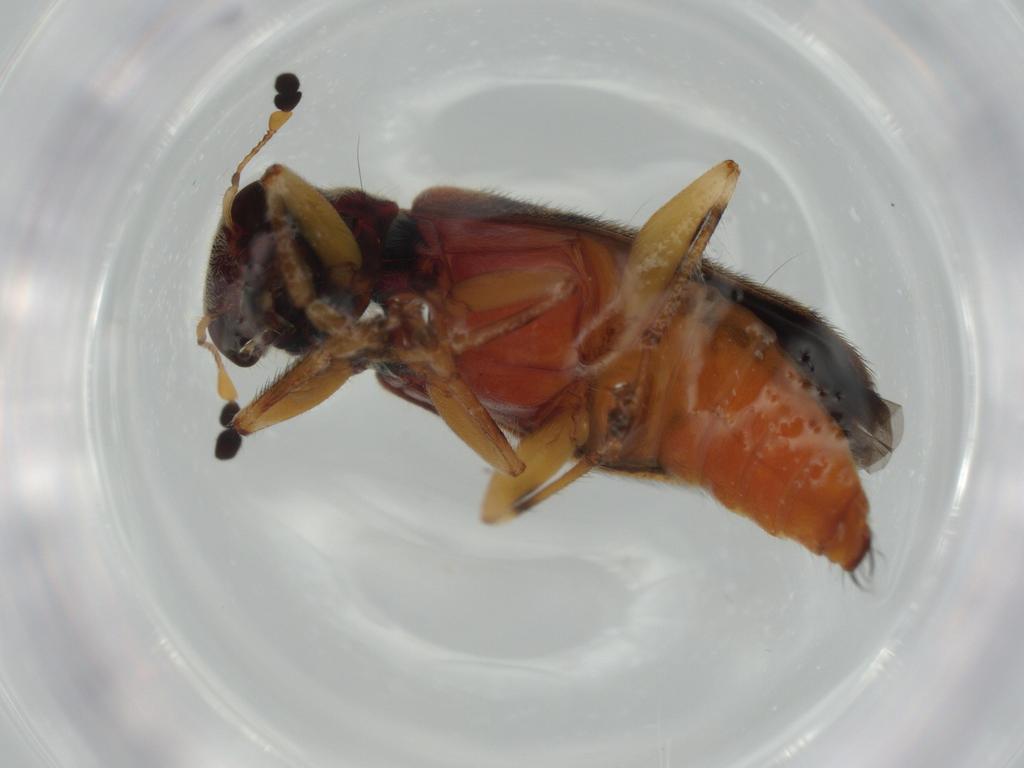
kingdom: Animalia
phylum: Arthropoda
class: Insecta
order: Coleoptera
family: Cleridae
